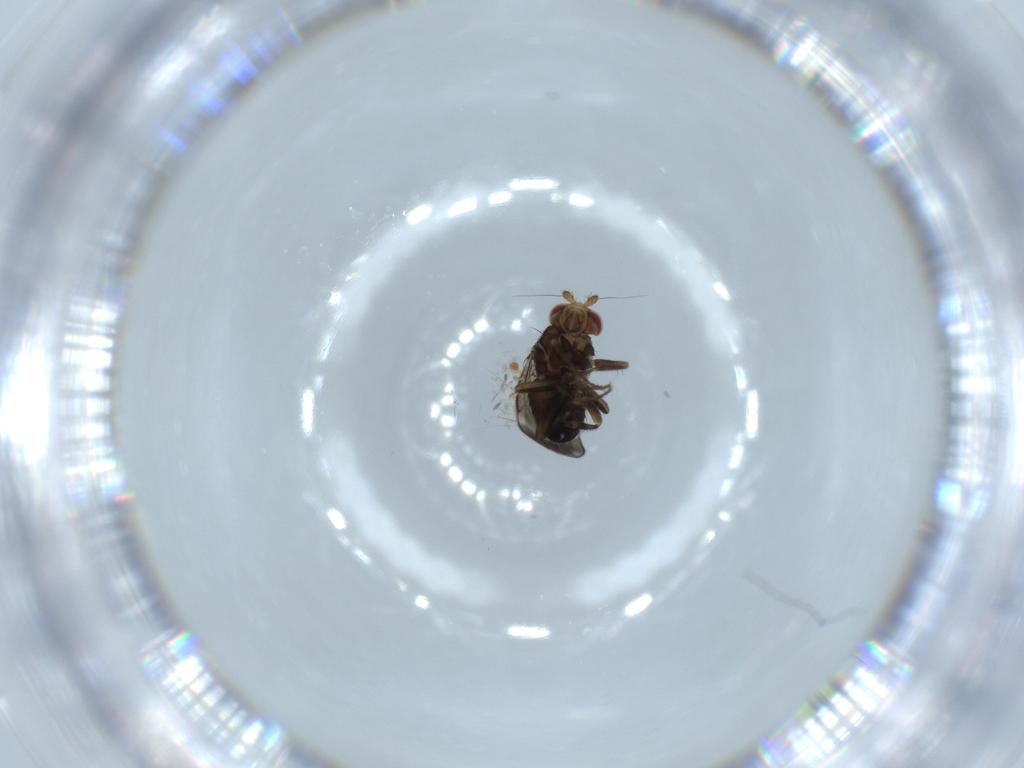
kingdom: Animalia
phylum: Arthropoda
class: Insecta
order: Diptera
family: Sphaeroceridae
